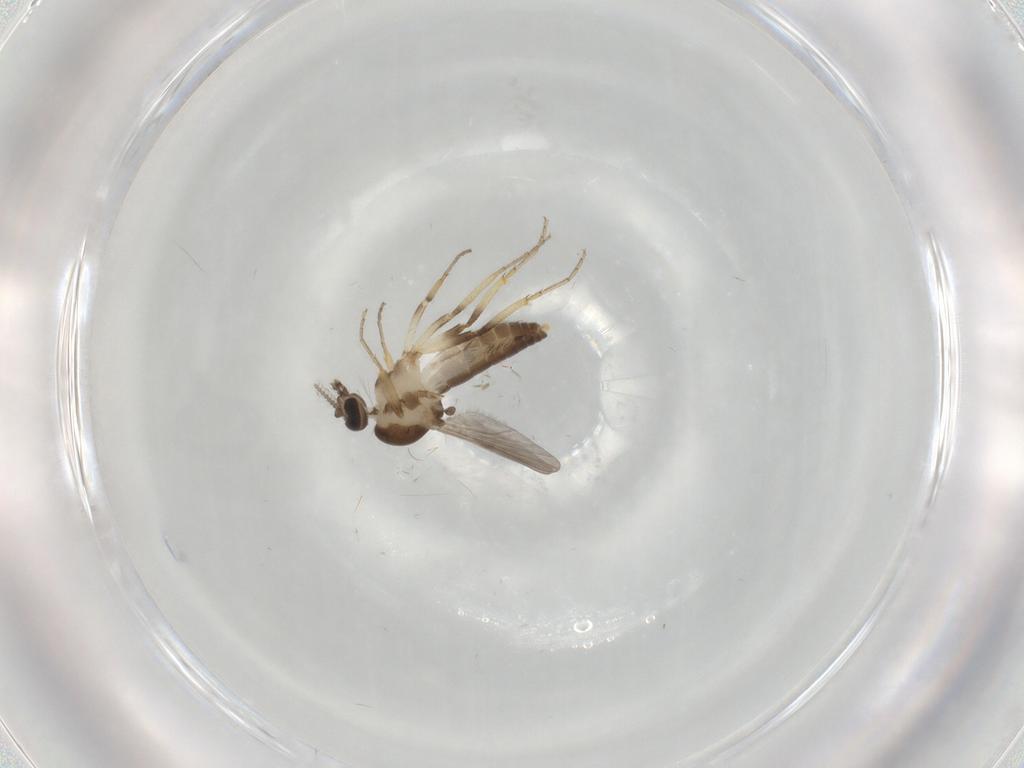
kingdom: Animalia
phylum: Arthropoda
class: Insecta
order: Diptera
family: Ceratopogonidae
